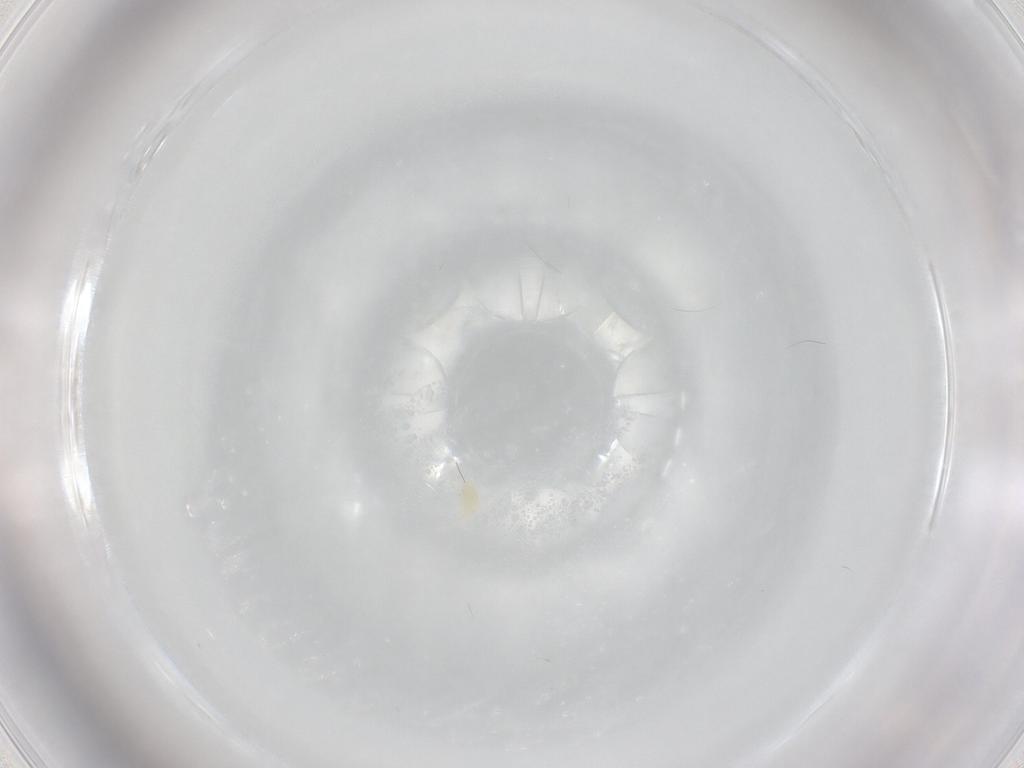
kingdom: Animalia
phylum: Arthropoda
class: Arachnida
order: Trombidiformes
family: Eupodidae
